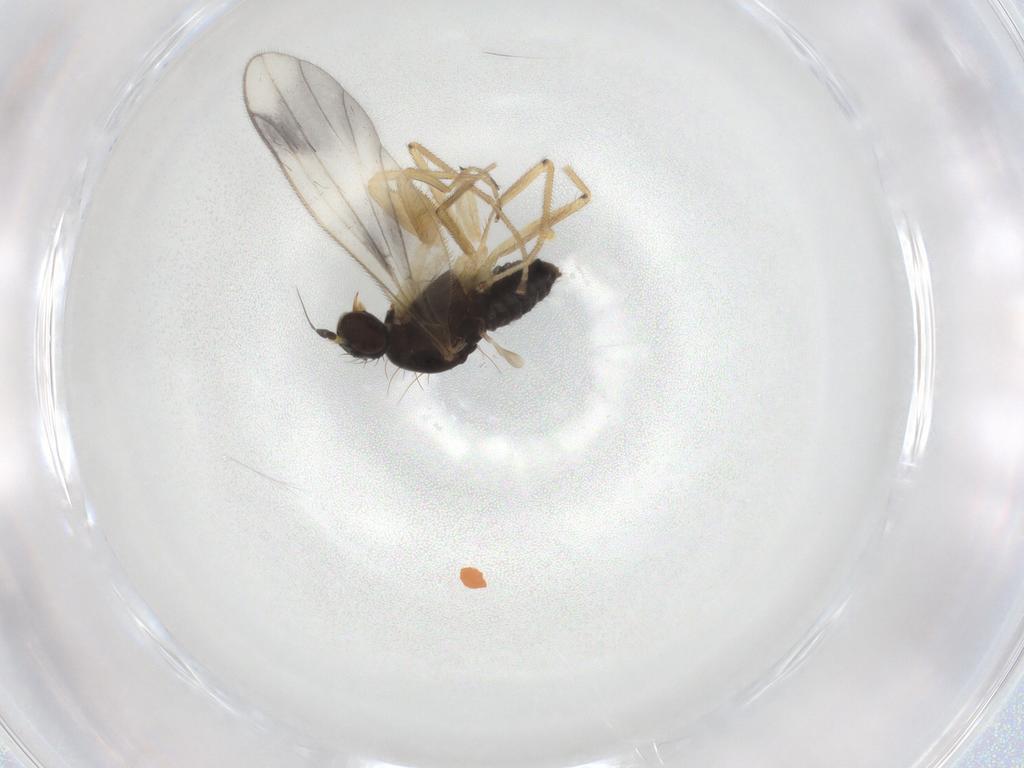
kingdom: Animalia
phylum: Arthropoda
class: Insecta
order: Diptera
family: Empididae
